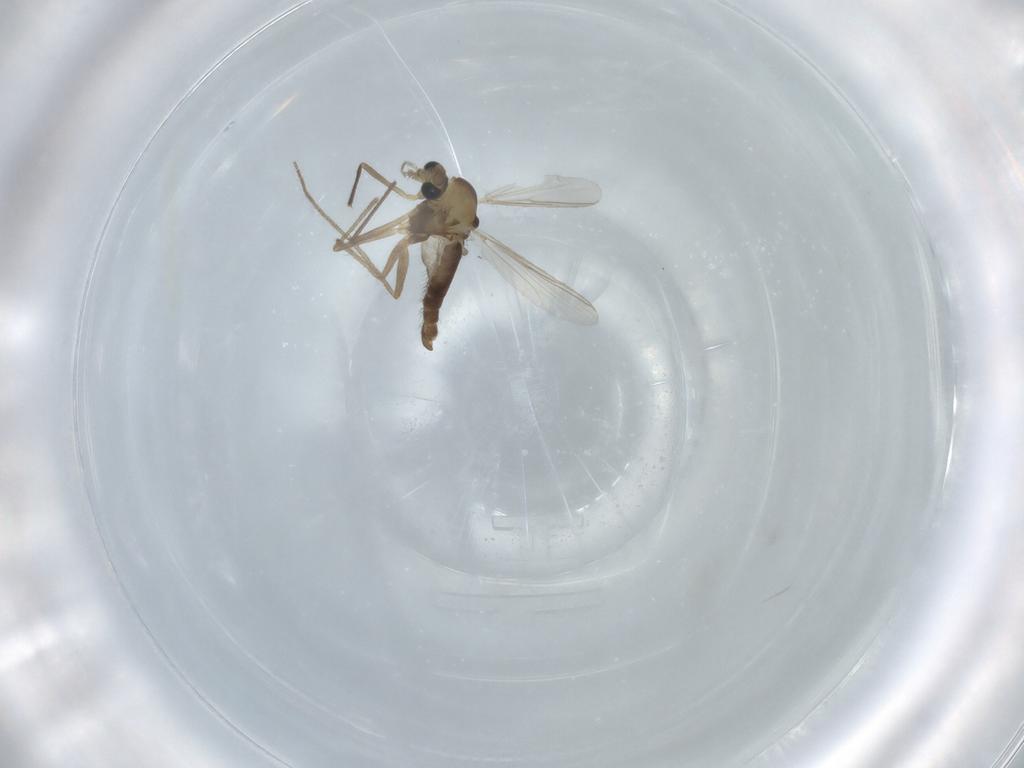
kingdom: Animalia
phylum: Arthropoda
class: Insecta
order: Diptera
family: Chironomidae
